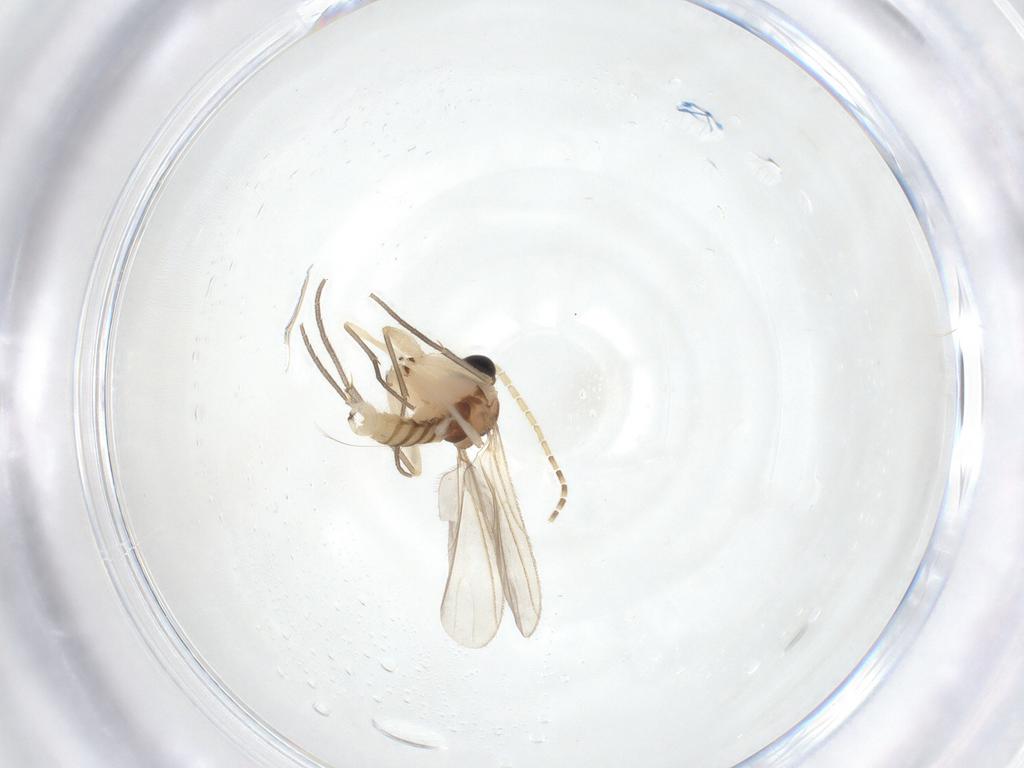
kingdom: Animalia
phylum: Arthropoda
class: Insecta
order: Diptera
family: Sciaridae
